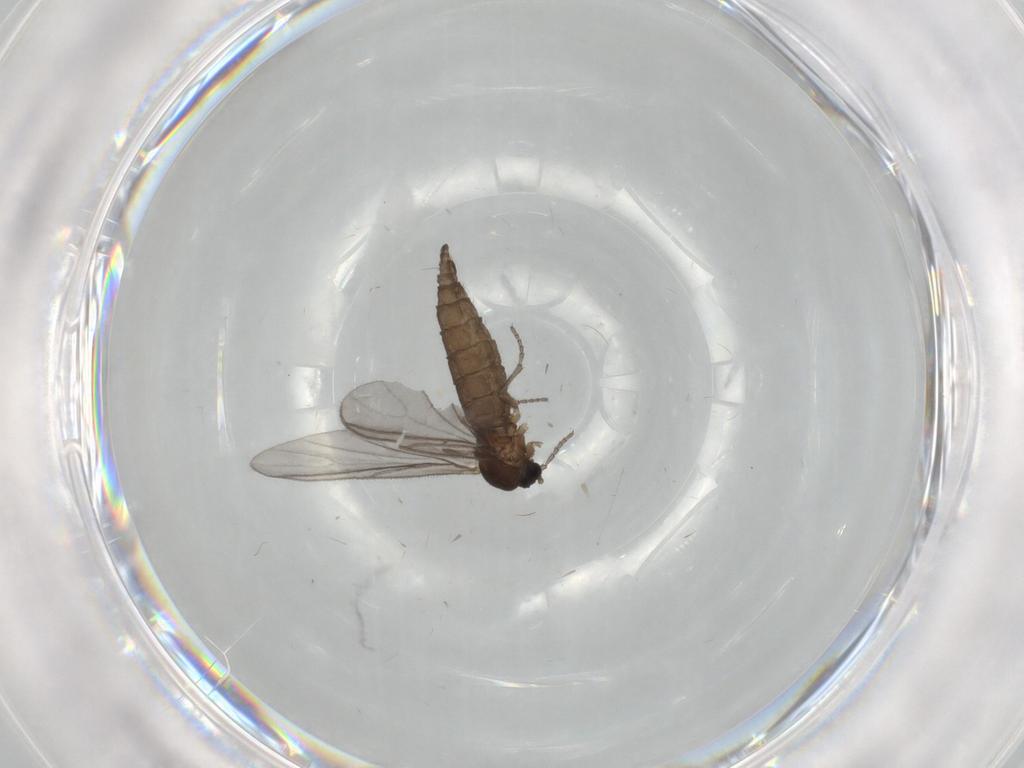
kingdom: Animalia
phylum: Arthropoda
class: Insecta
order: Diptera
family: Sciaridae
